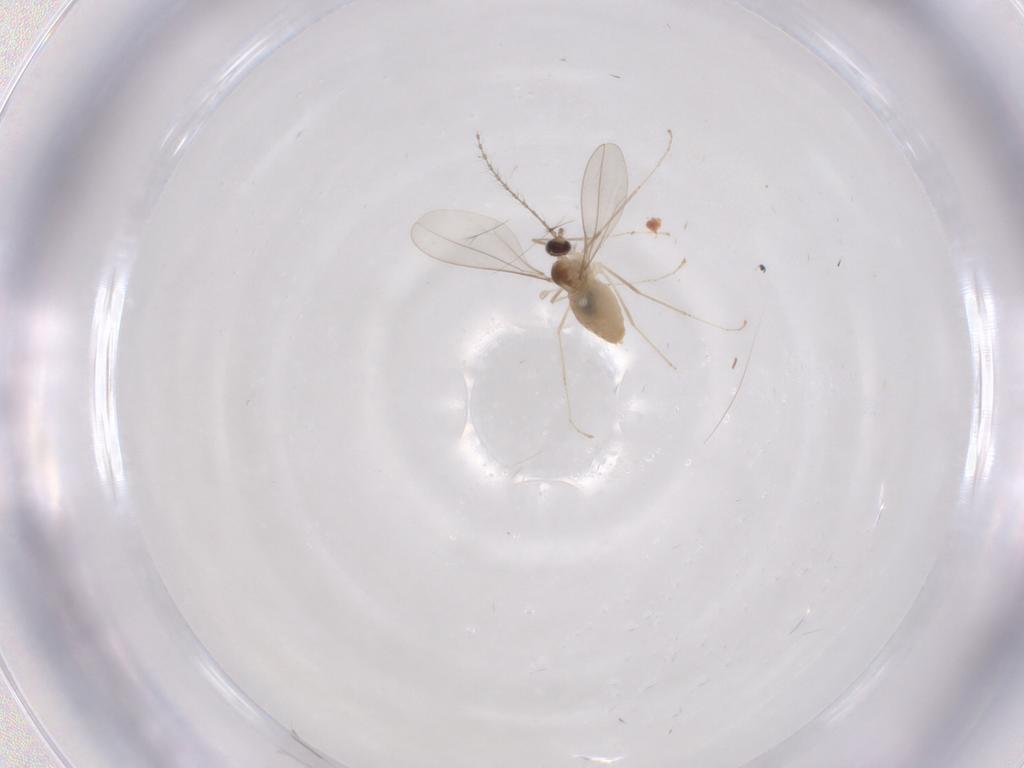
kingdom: Animalia
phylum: Arthropoda
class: Insecta
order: Diptera
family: Cecidomyiidae
